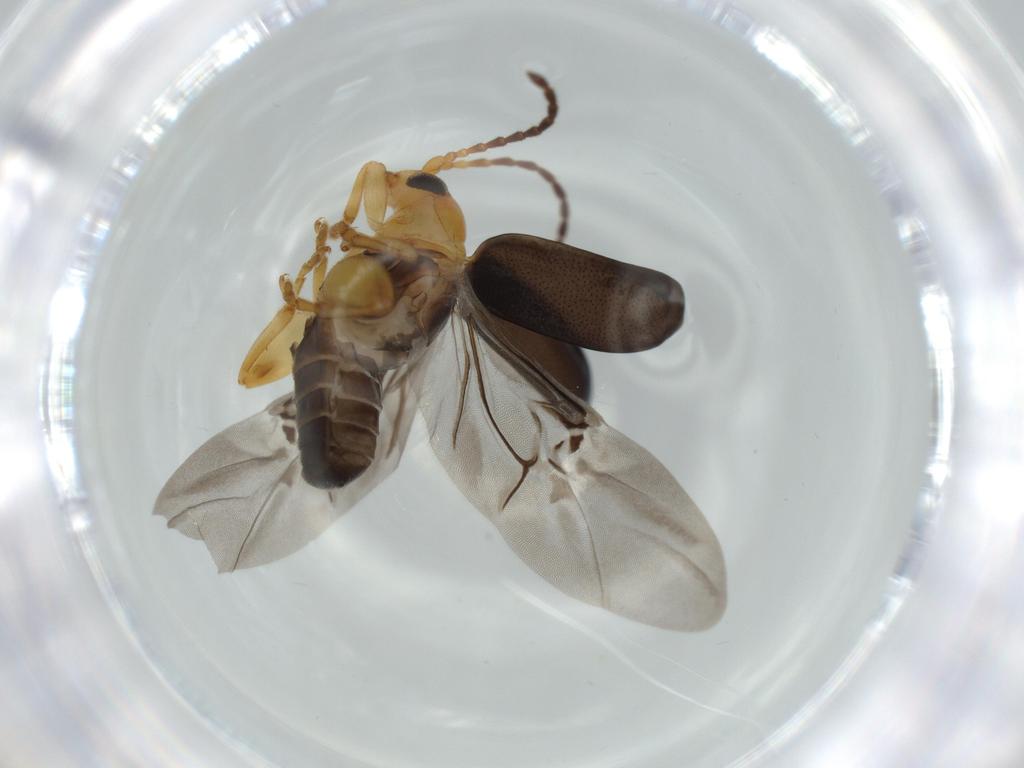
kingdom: Animalia
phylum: Arthropoda
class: Insecta
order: Coleoptera
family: Chrysomelidae
